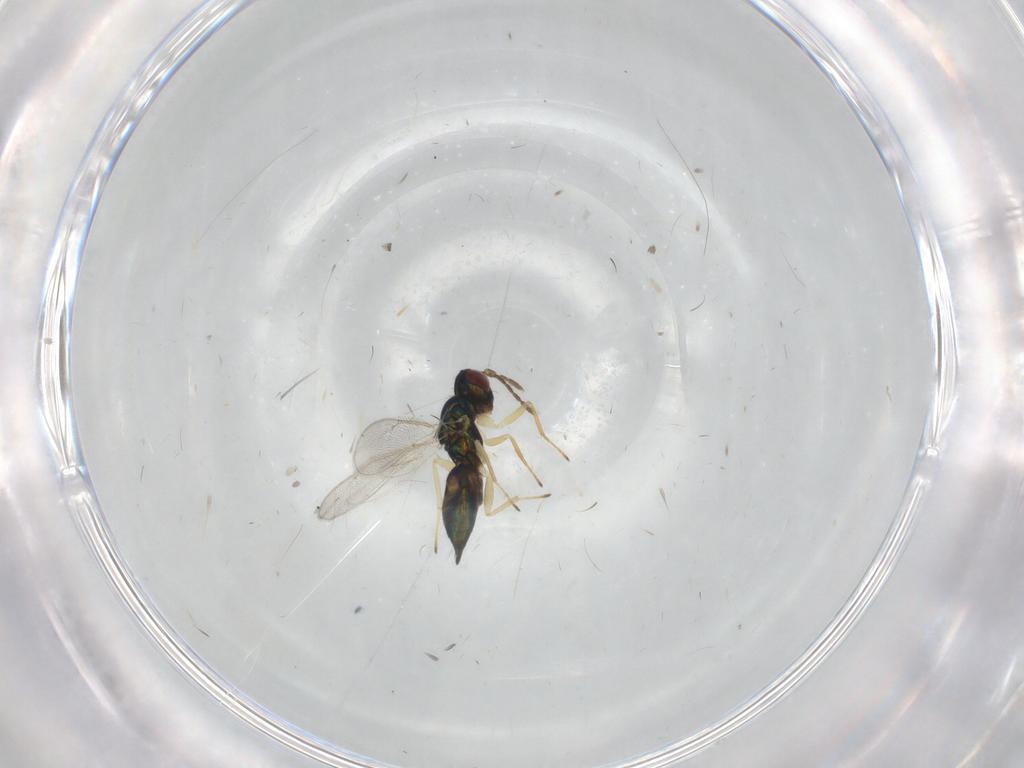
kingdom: Animalia
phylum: Arthropoda
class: Insecta
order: Hymenoptera
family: Eulophidae
